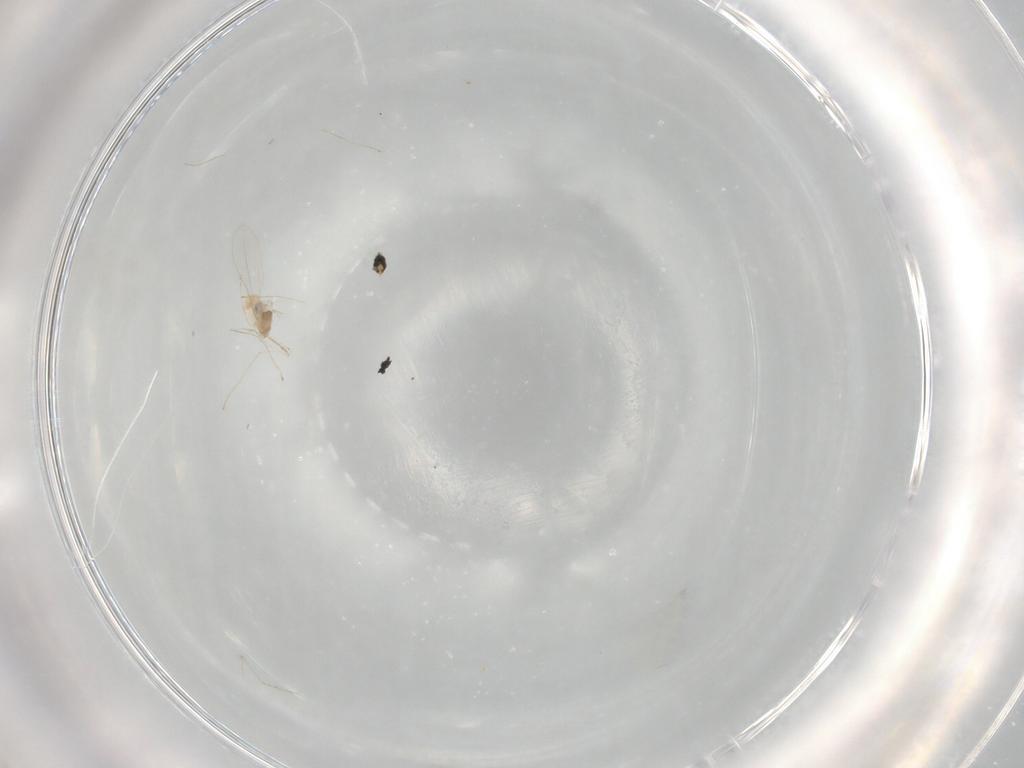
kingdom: Animalia
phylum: Arthropoda
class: Insecta
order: Diptera
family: Cecidomyiidae
